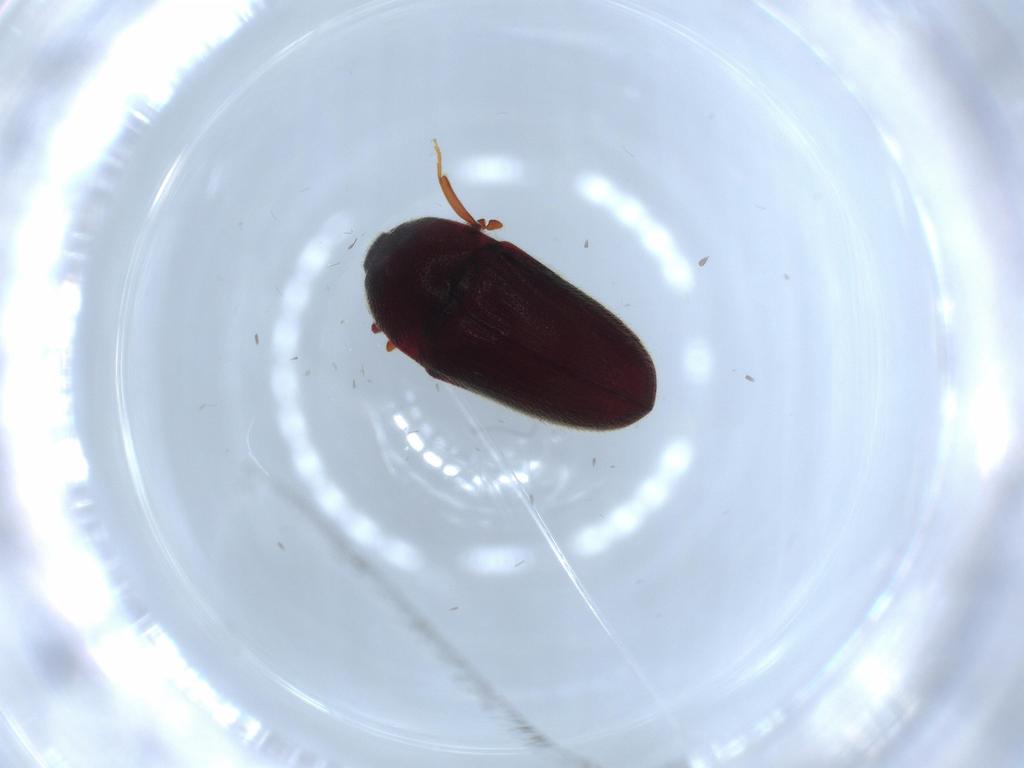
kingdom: Animalia
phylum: Arthropoda
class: Insecta
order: Coleoptera
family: Throscidae
